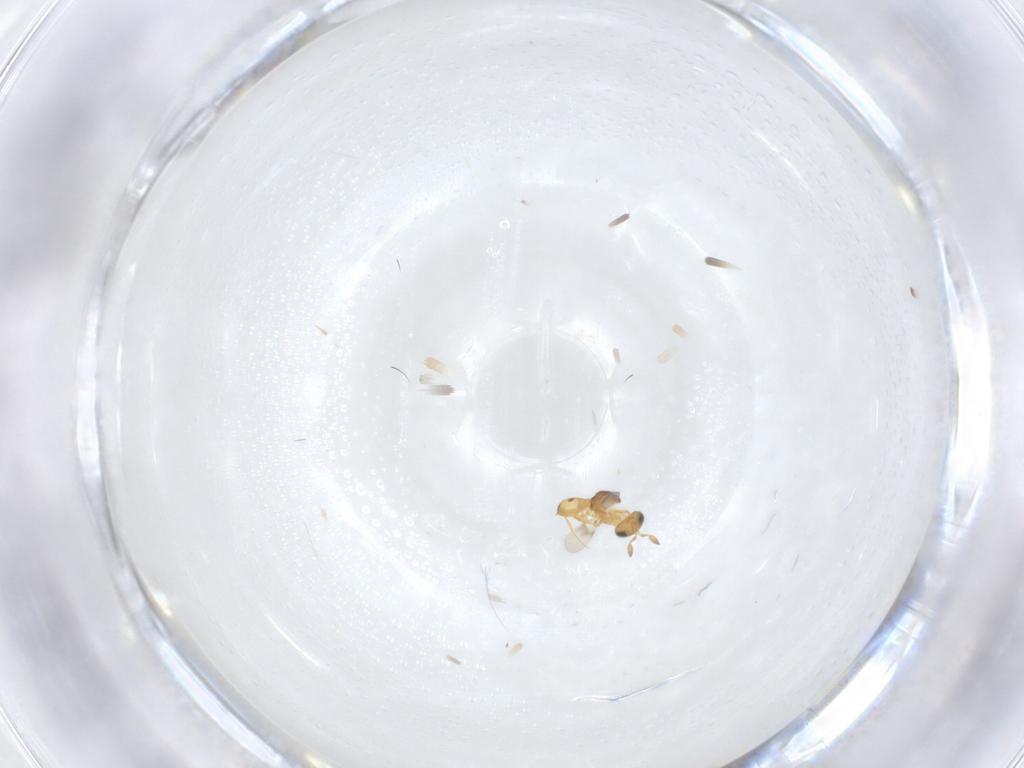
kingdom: Animalia
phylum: Arthropoda
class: Insecta
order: Hymenoptera
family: Scelionidae
